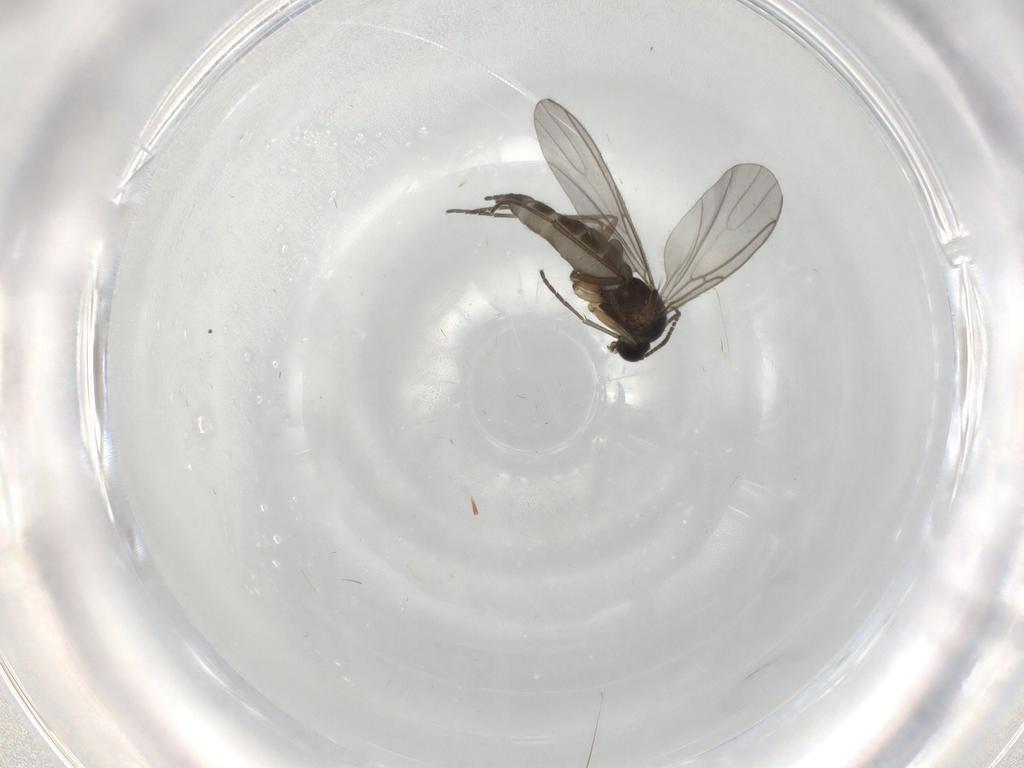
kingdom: Animalia
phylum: Arthropoda
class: Insecta
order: Diptera
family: Sciaridae
